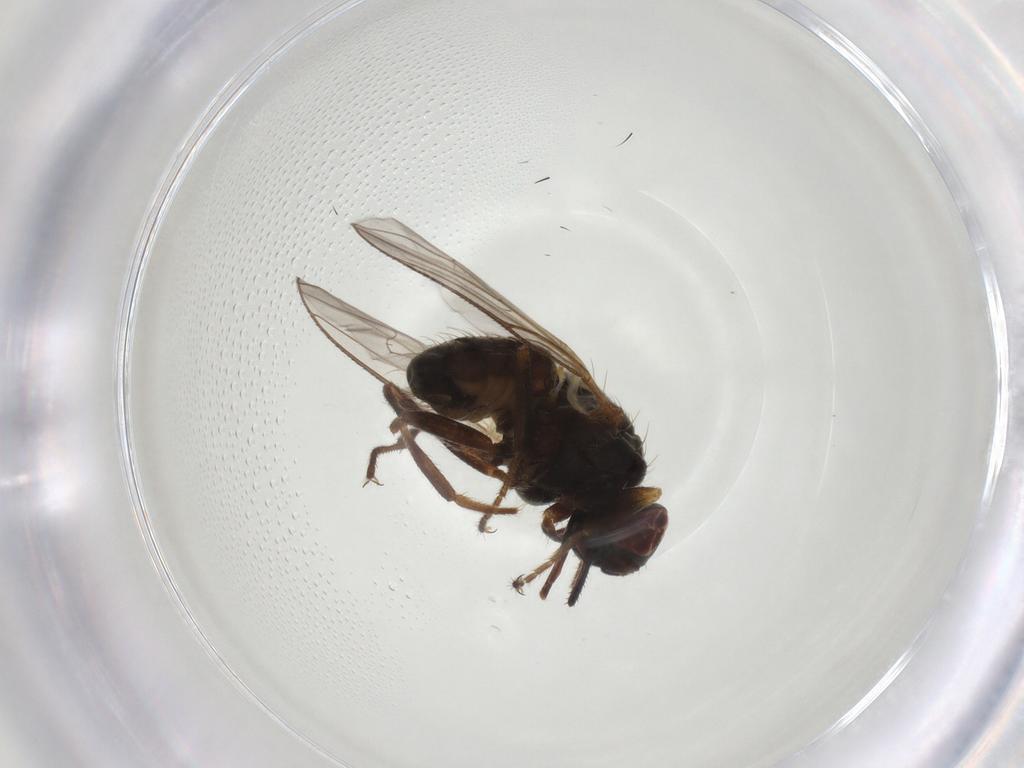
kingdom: Animalia
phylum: Arthropoda
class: Insecta
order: Diptera
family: Muscidae
